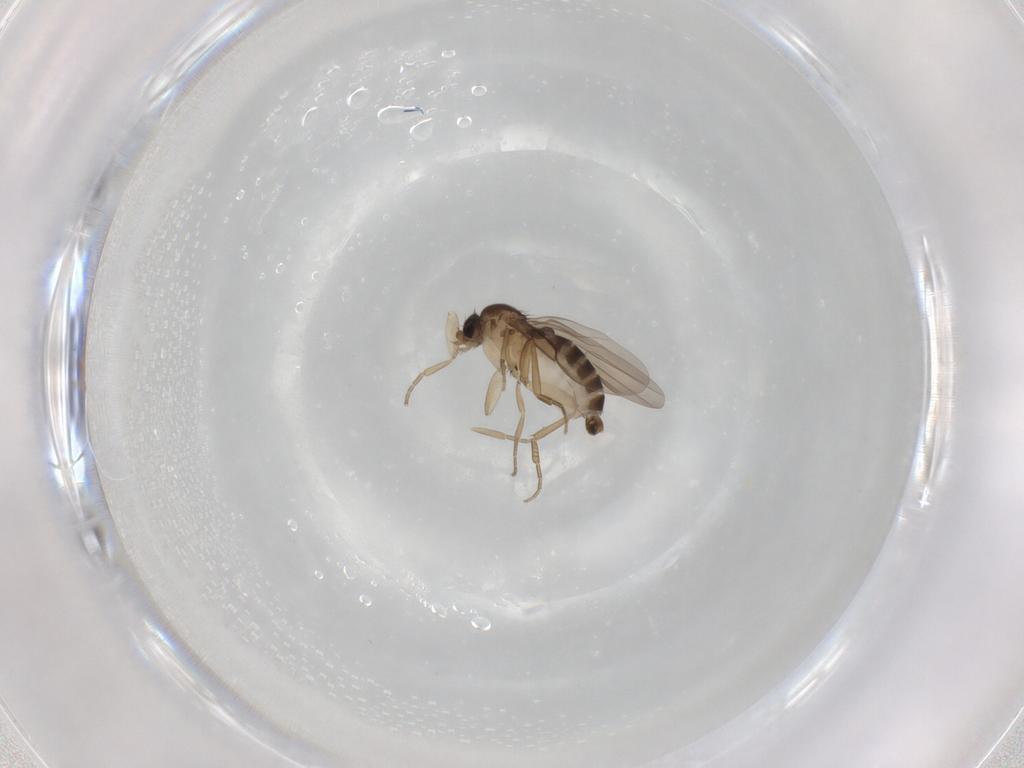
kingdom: Animalia
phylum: Arthropoda
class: Insecta
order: Diptera
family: Phoridae
